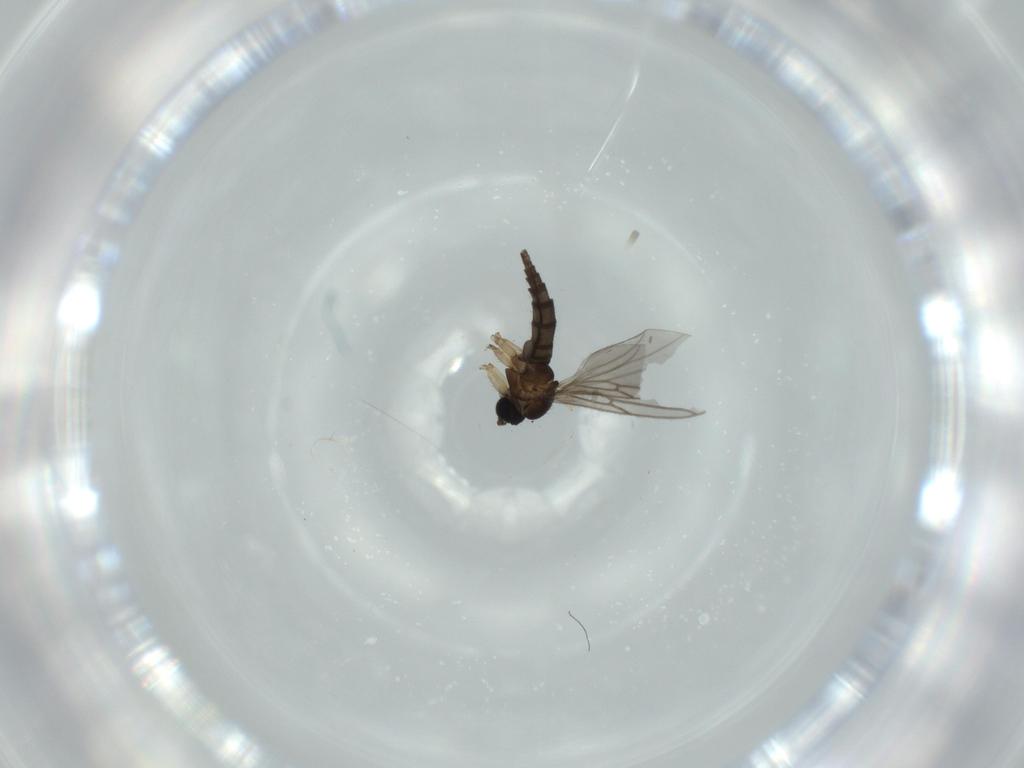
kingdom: Animalia
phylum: Arthropoda
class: Insecta
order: Diptera
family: Sciaridae
